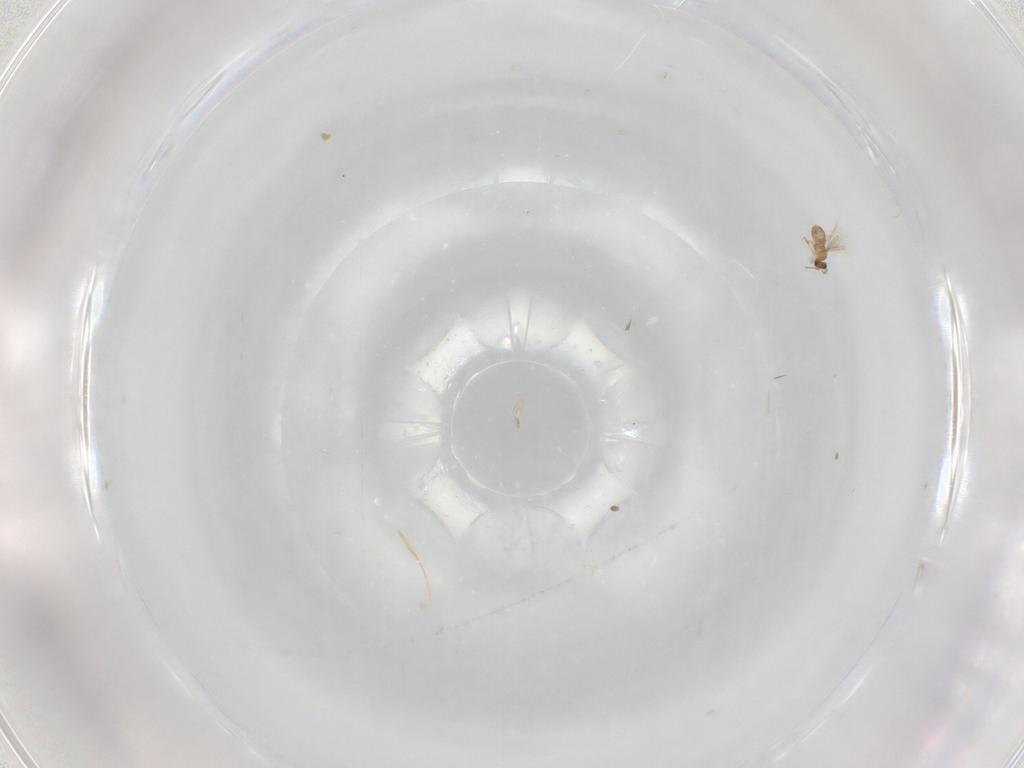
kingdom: Animalia
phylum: Arthropoda
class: Insecta
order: Hymenoptera
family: Mymaridae
